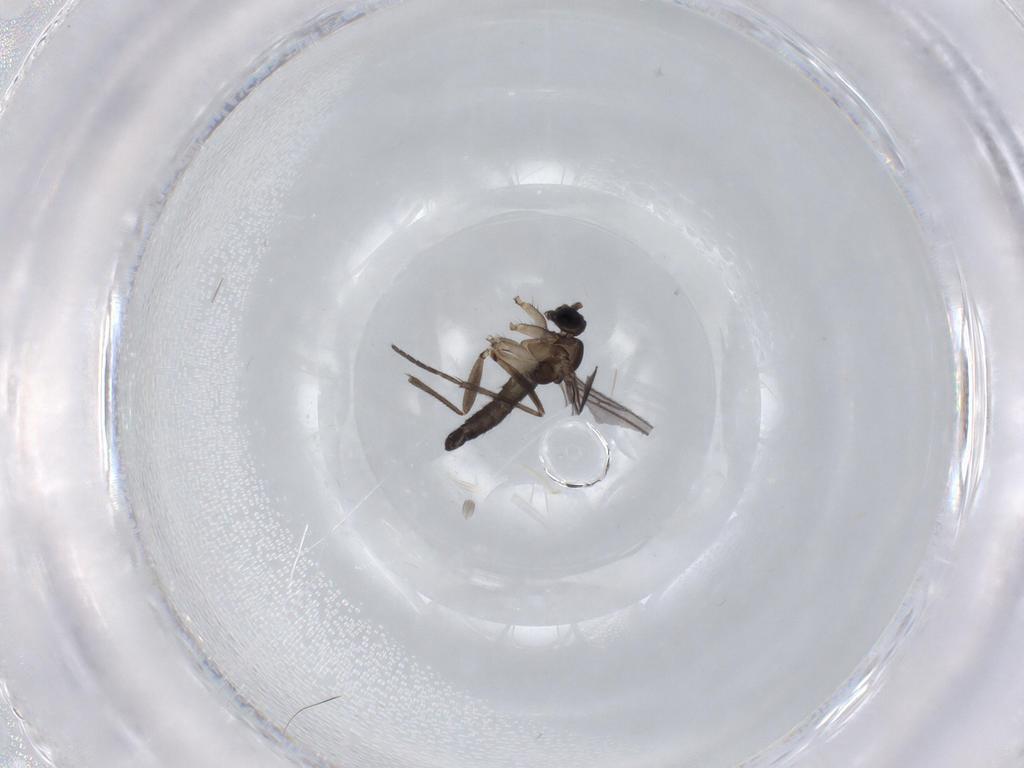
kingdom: Animalia
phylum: Arthropoda
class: Insecta
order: Diptera
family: Sciaridae
